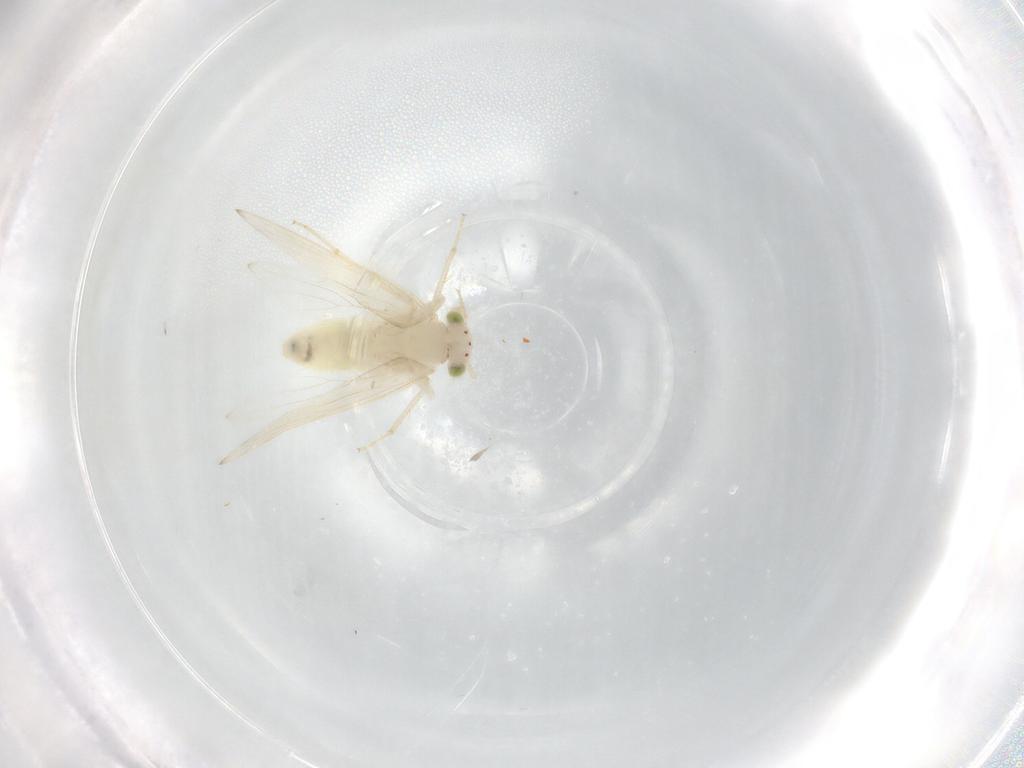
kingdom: Animalia
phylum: Arthropoda
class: Insecta
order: Psocodea
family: Lepidopsocidae
